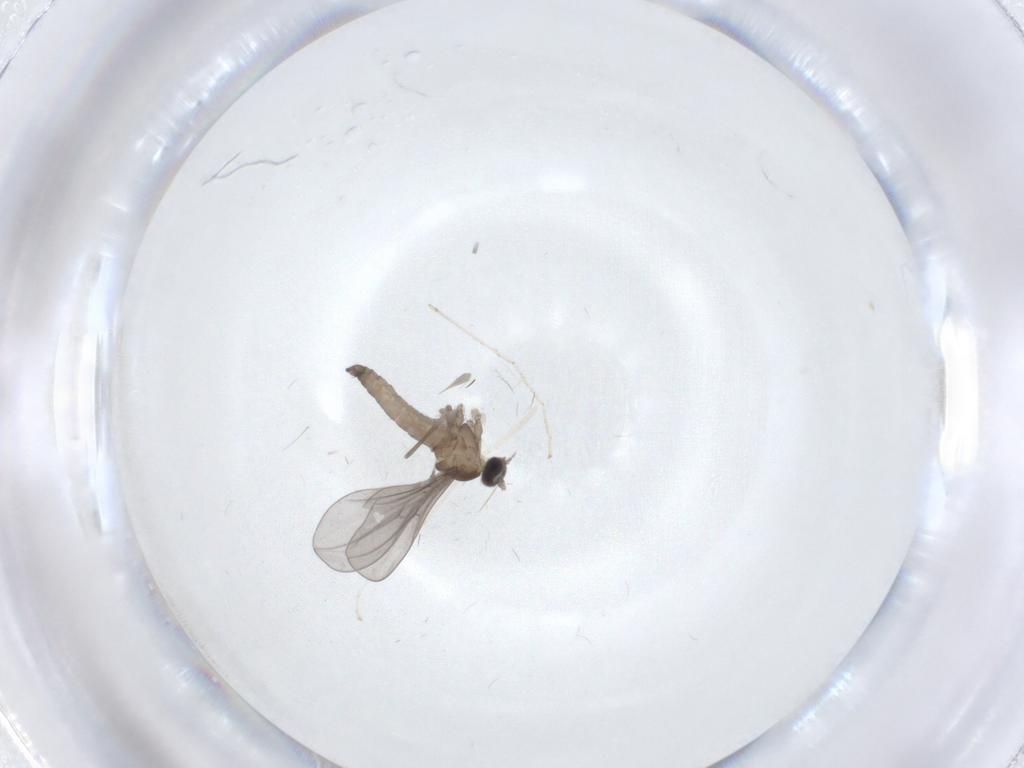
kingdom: Animalia
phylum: Arthropoda
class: Insecta
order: Diptera
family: Cecidomyiidae
